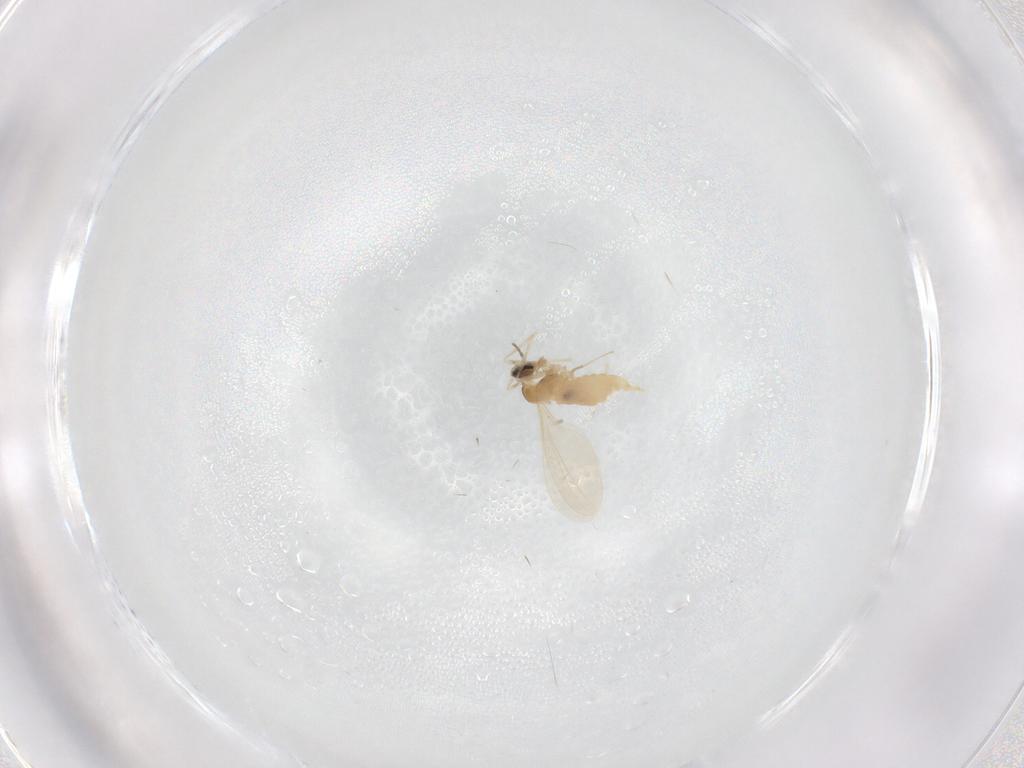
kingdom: Animalia
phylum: Arthropoda
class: Insecta
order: Diptera
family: Cecidomyiidae
